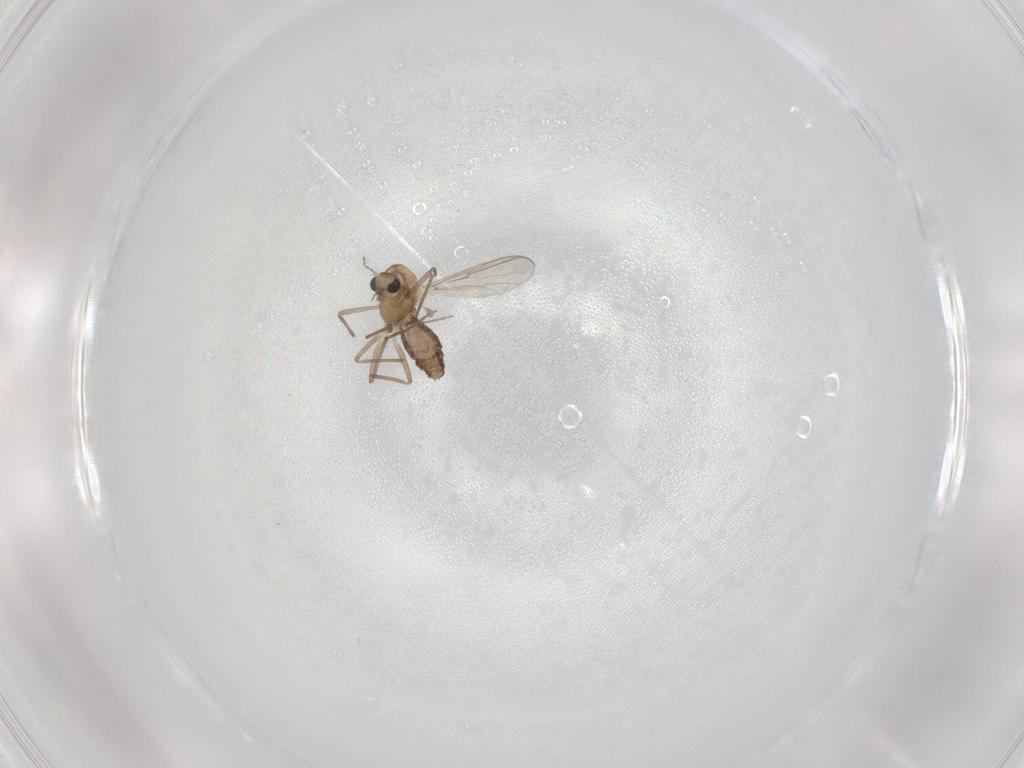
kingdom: Animalia
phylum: Arthropoda
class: Insecta
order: Diptera
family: Chironomidae
